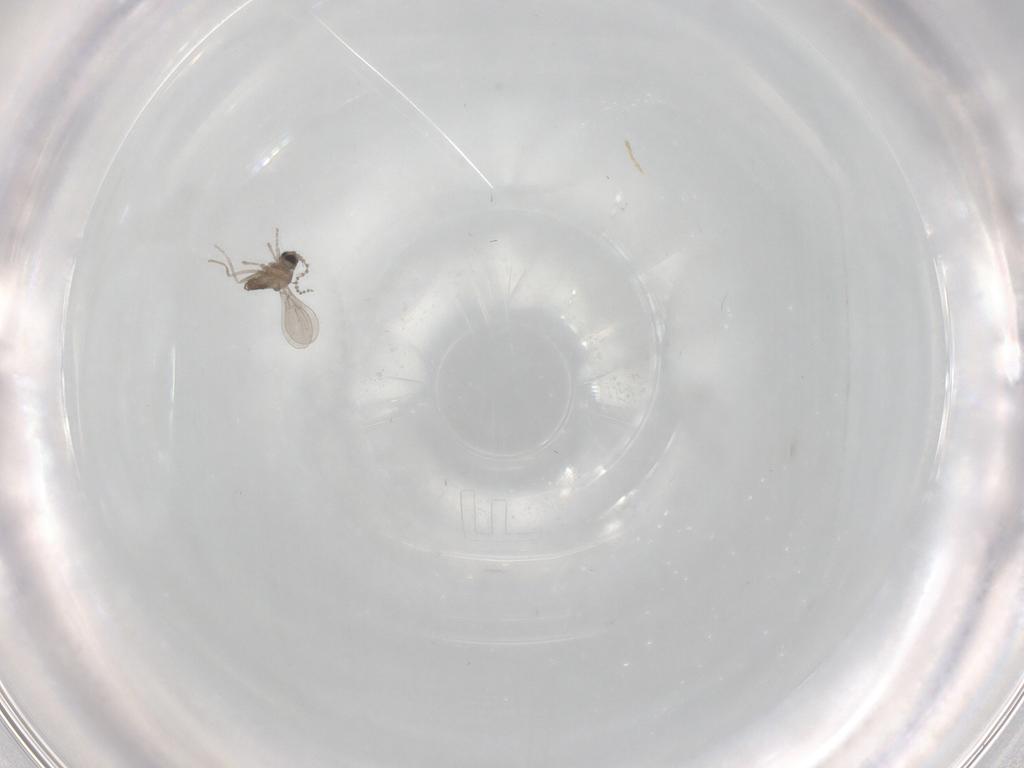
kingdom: Animalia
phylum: Arthropoda
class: Insecta
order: Diptera
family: Cecidomyiidae
